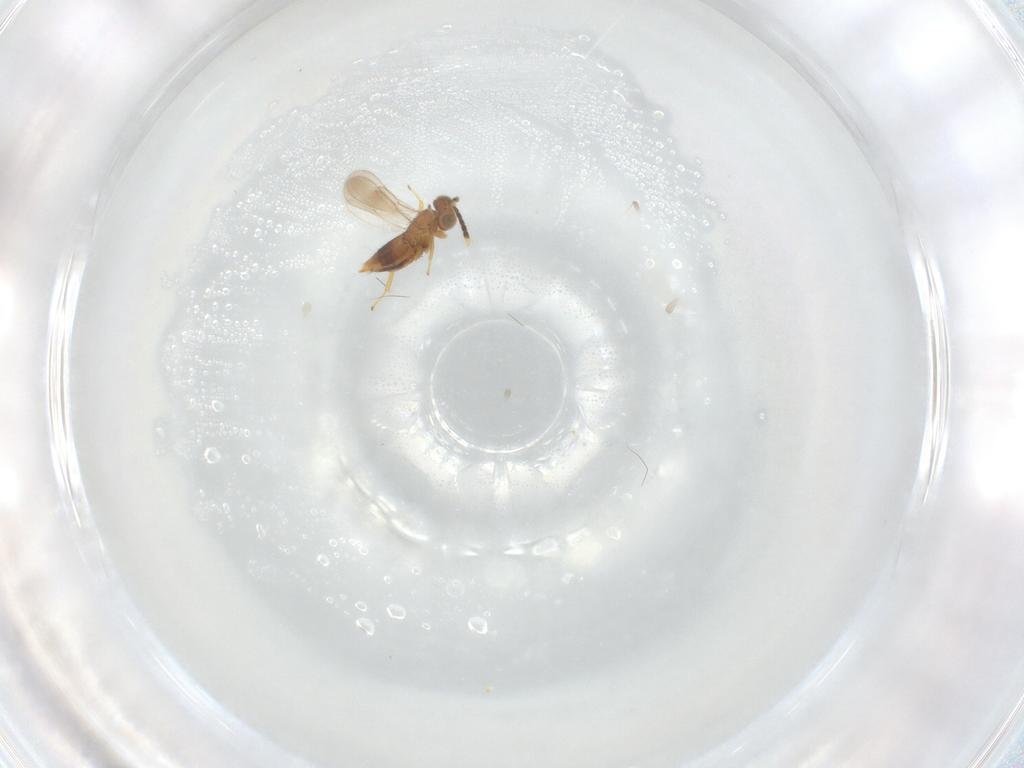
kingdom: Animalia
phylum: Arthropoda
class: Insecta
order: Hymenoptera
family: Aphelinidae
